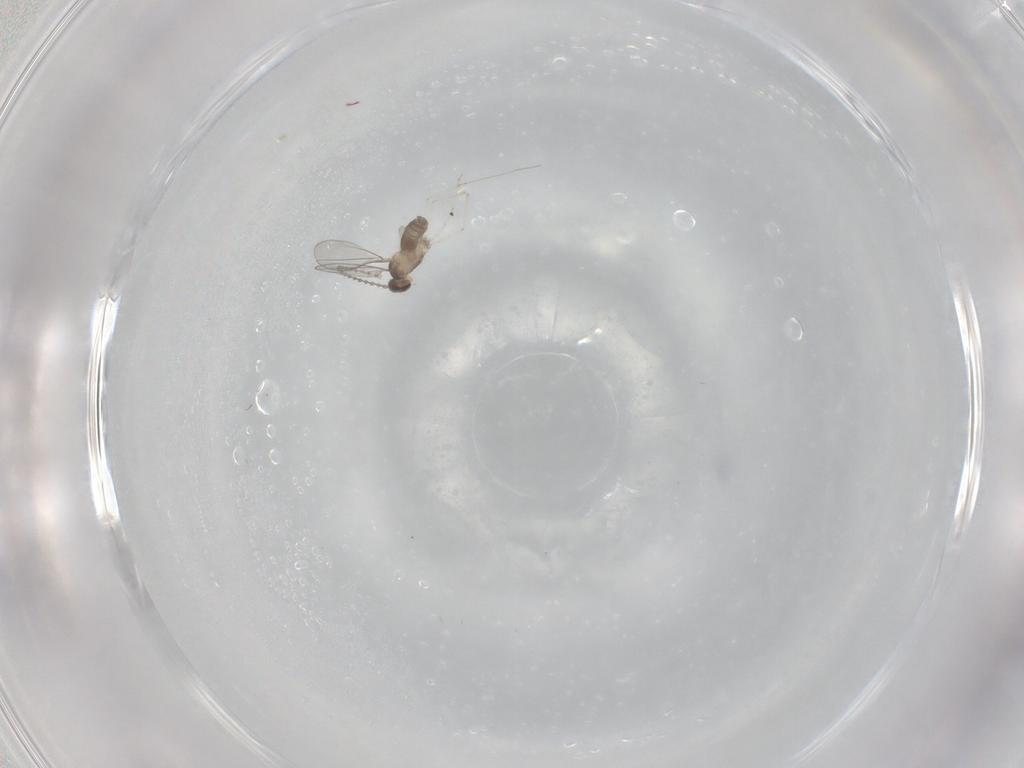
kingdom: Animalia
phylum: Arthropoda
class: Insecta
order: Diptera
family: Cecidomyiidae
